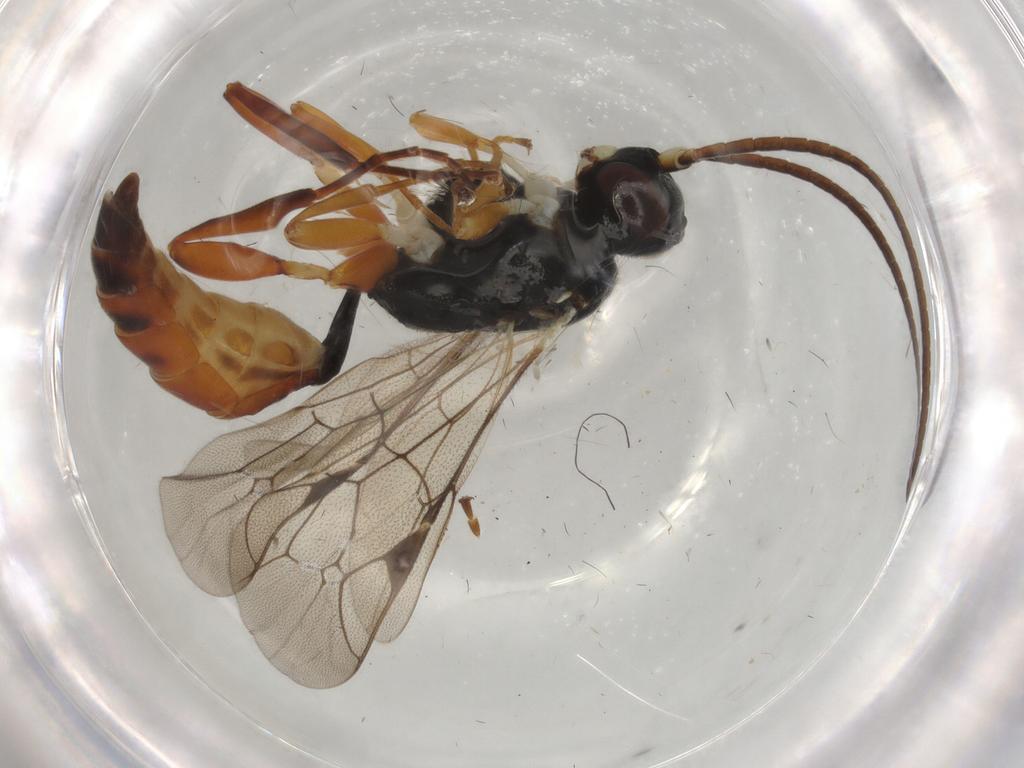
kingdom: Animalia
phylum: Arthropoda
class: Insecta
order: Hymenoptera
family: Ichneumonidae
